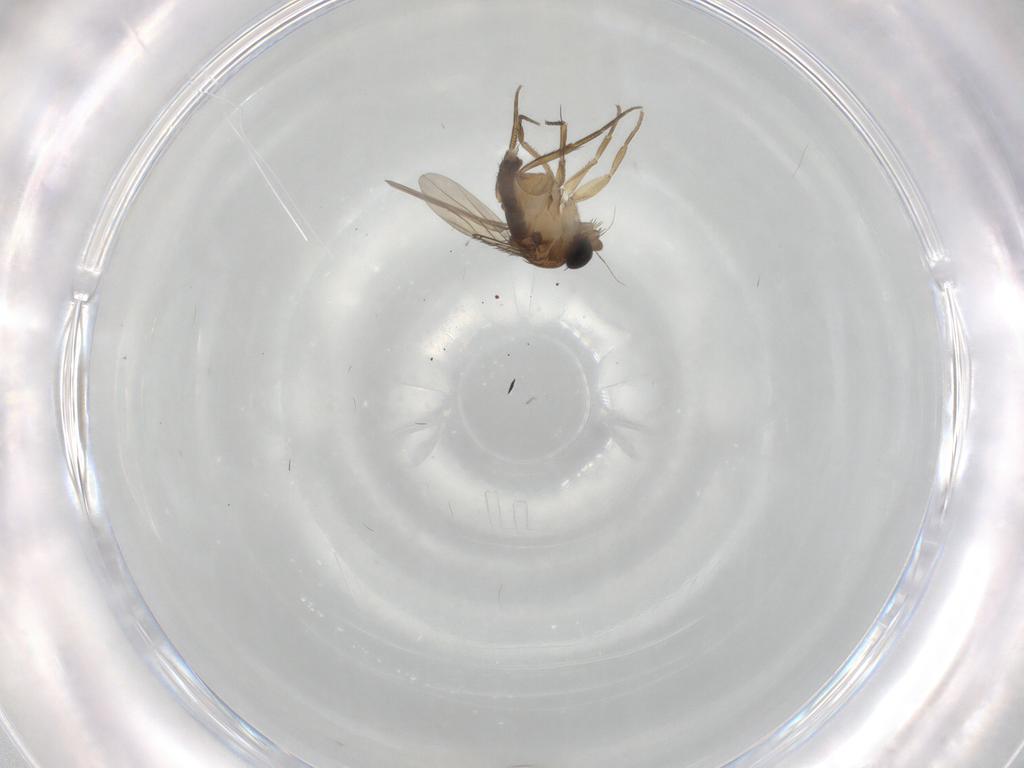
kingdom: Animalia
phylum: Arthropoda
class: Insecta
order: Diptera
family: Phoridae
